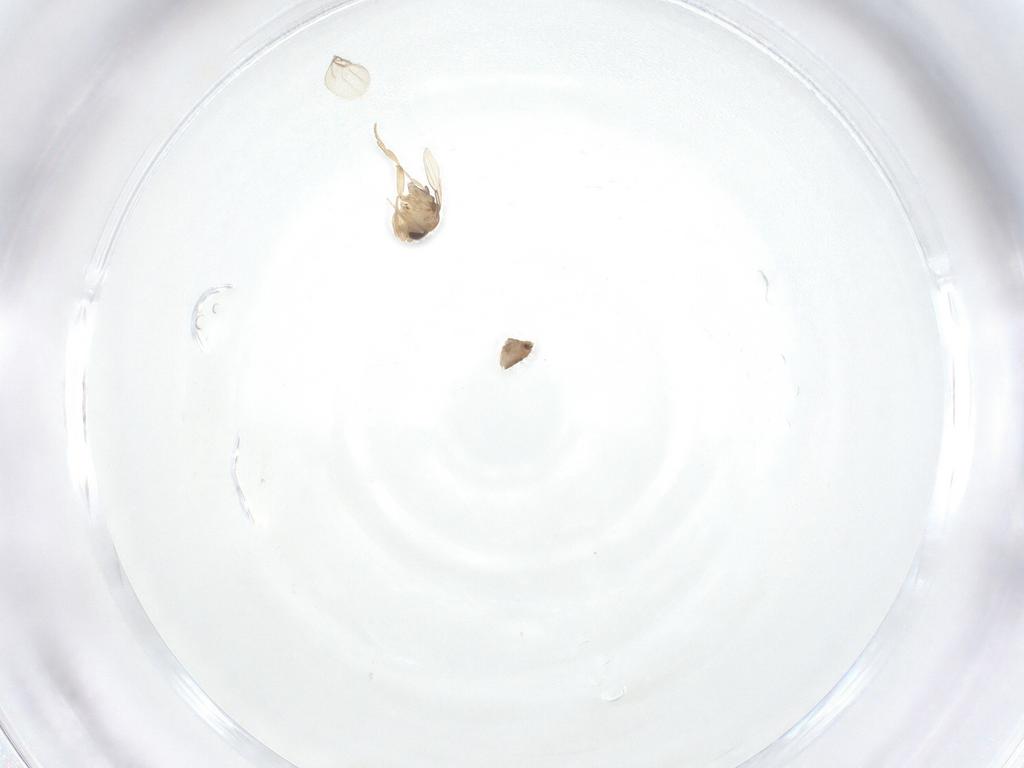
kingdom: Animalia
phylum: Arthropoda
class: Insecta
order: Diptera
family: Phoridae
